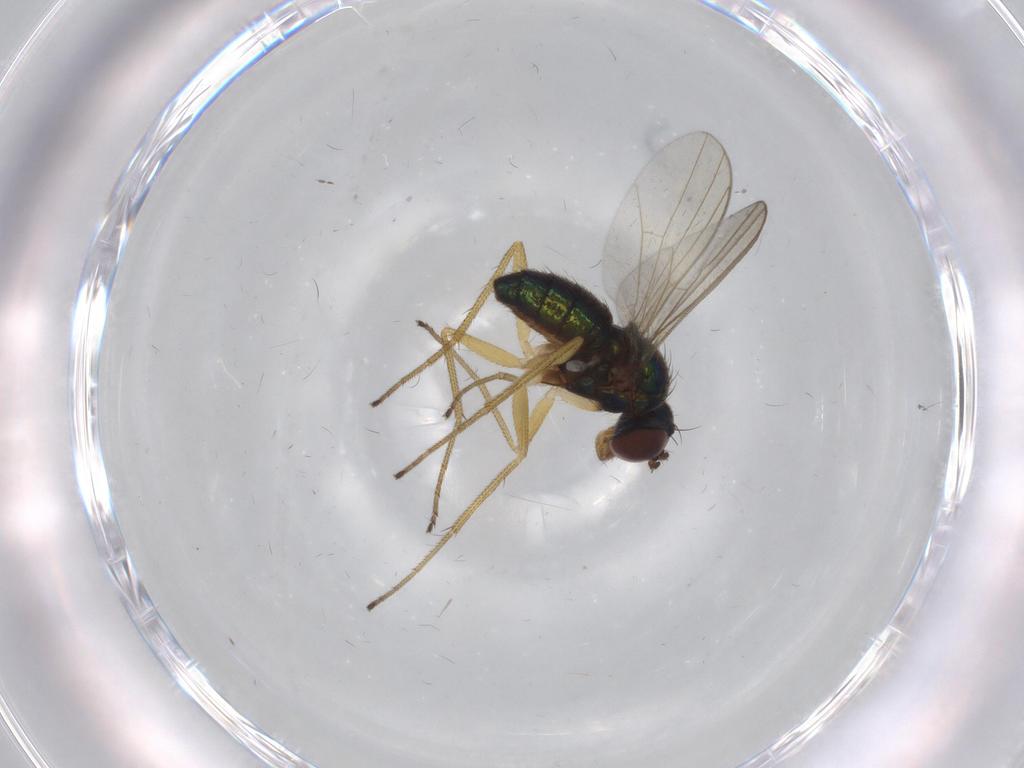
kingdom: Animalia
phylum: Arthropoda
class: Insecta
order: Diptera
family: Dolichopodidae
